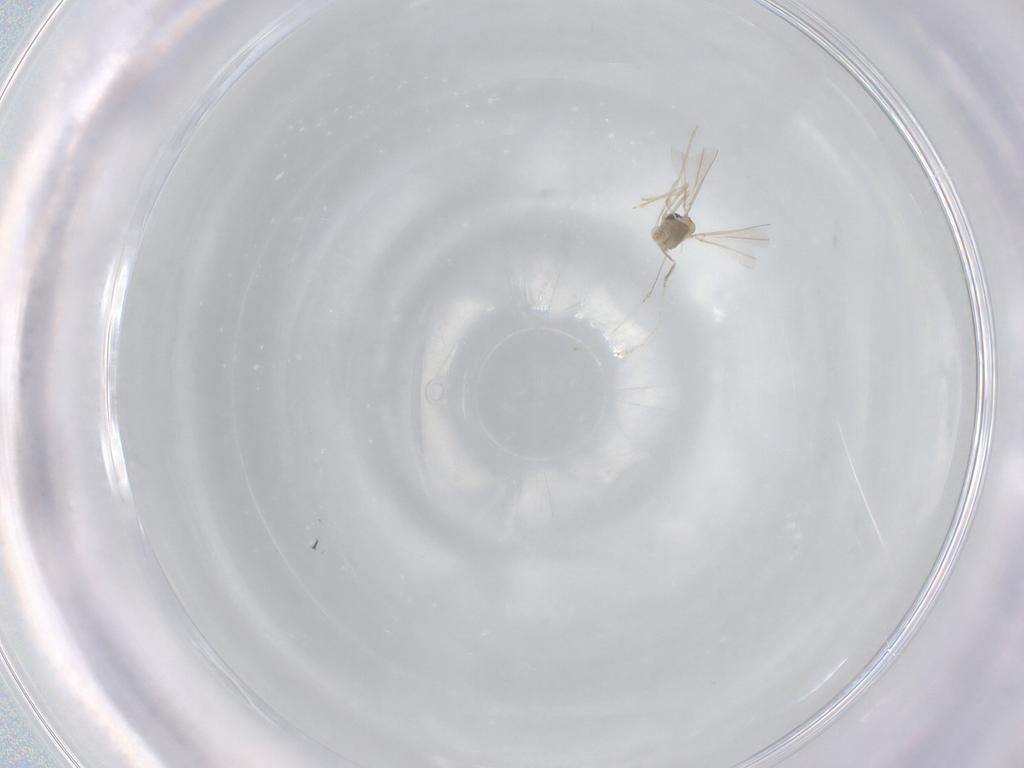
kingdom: Animalia
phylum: Arthropoda
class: Insecta
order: Diptera
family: Cecidomyiidae
